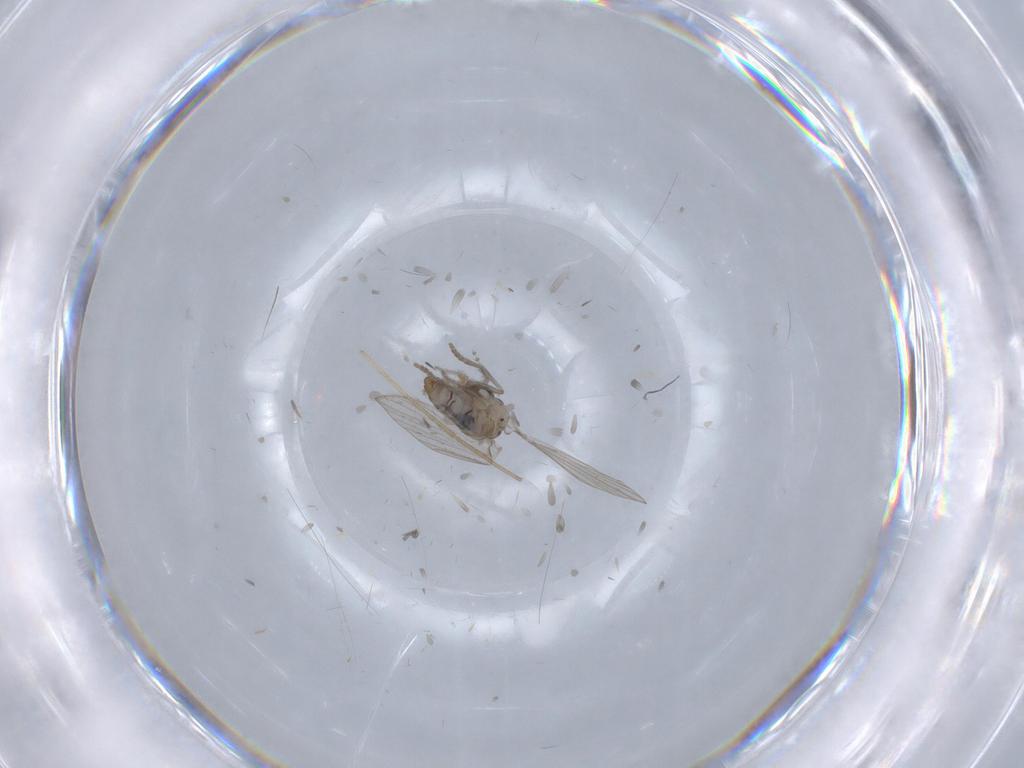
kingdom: Animalia
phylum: Arthropoda
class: Insecta
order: Diptera
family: Psychodidae
